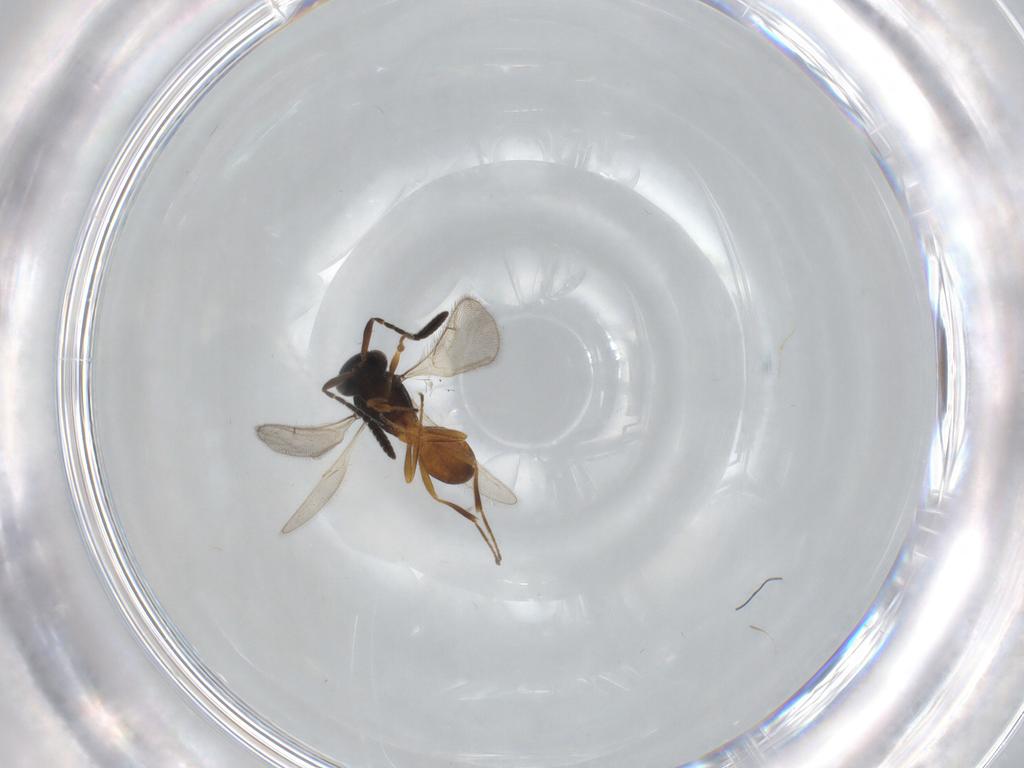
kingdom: Animalia
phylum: Arthropoda
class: Insecta
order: Hymenoptera
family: Scelionidae
